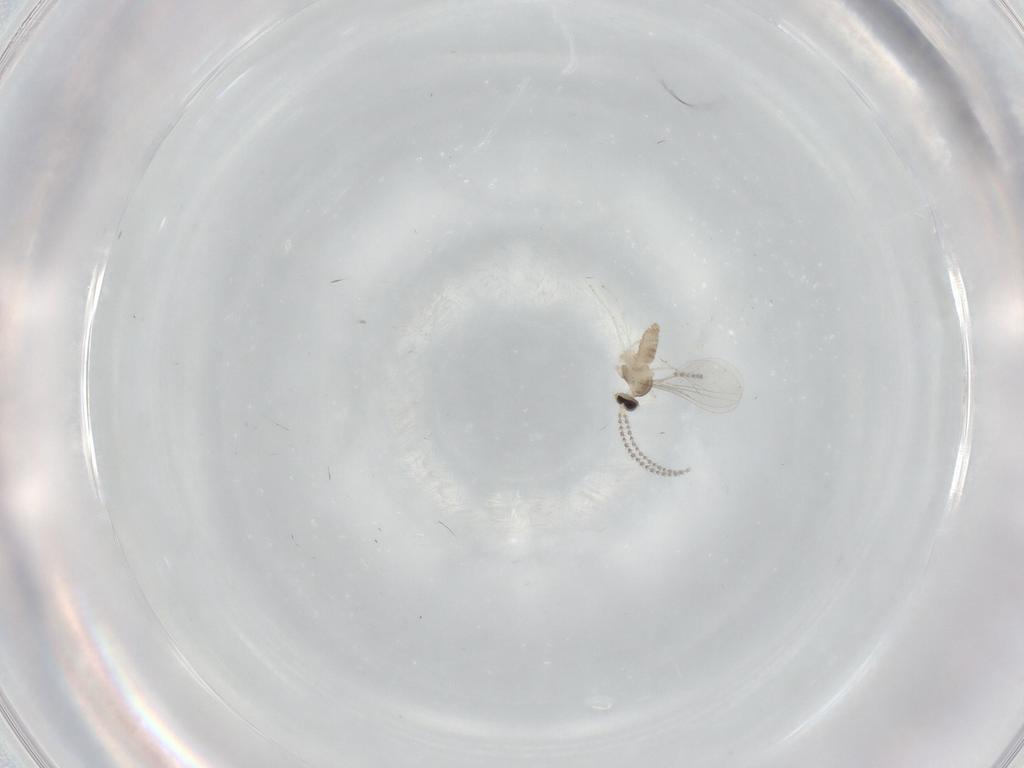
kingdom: Animalia
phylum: Arthropoda
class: Insecta
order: Diptera
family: Cecidomyiidae
